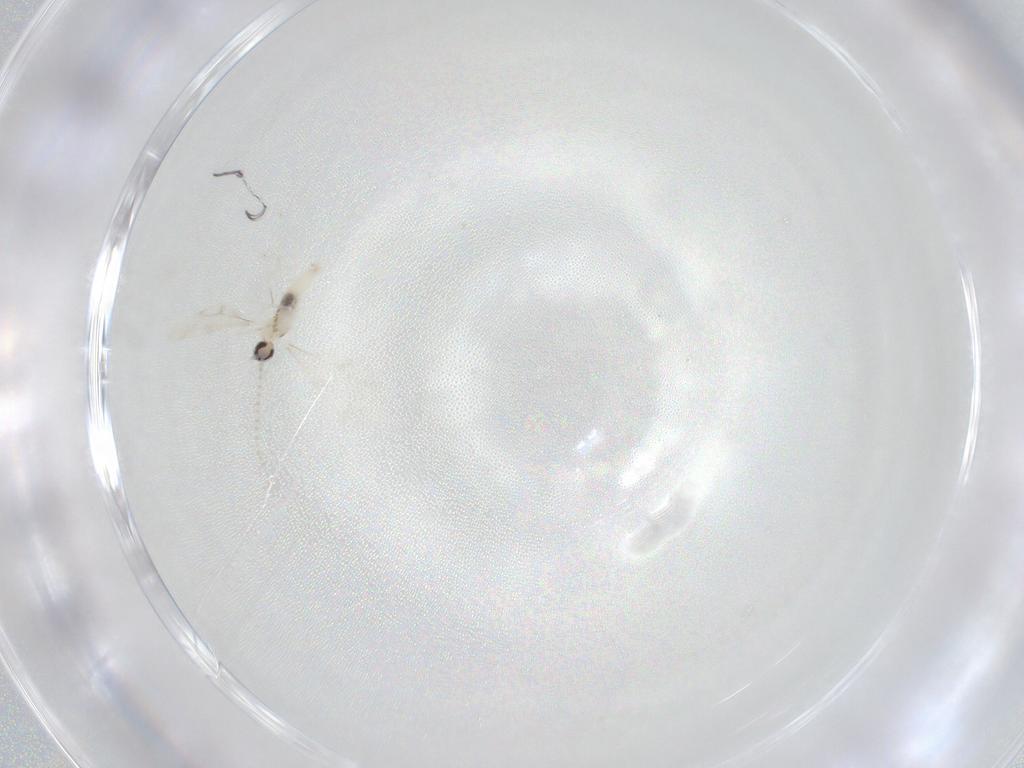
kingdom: Animalia
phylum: Arthropoda
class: Insecta
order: Diptera
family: Cecidomyiidae
